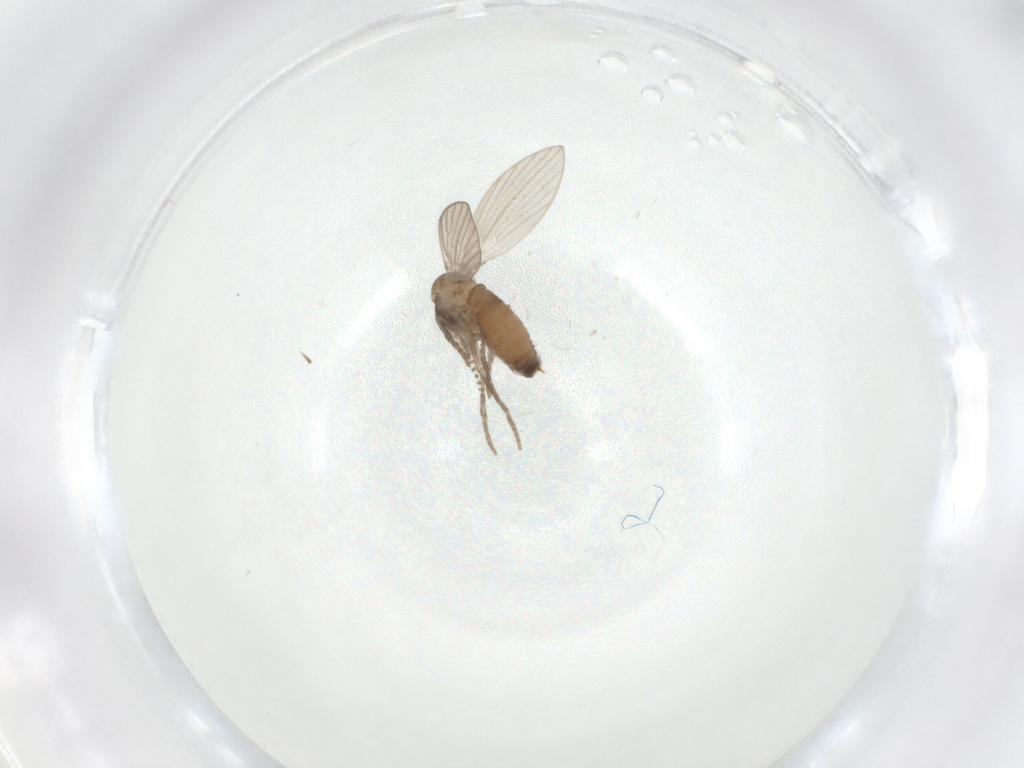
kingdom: Animalia
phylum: Arthropoda
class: Insecta
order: Diptera
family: Psychodidae
